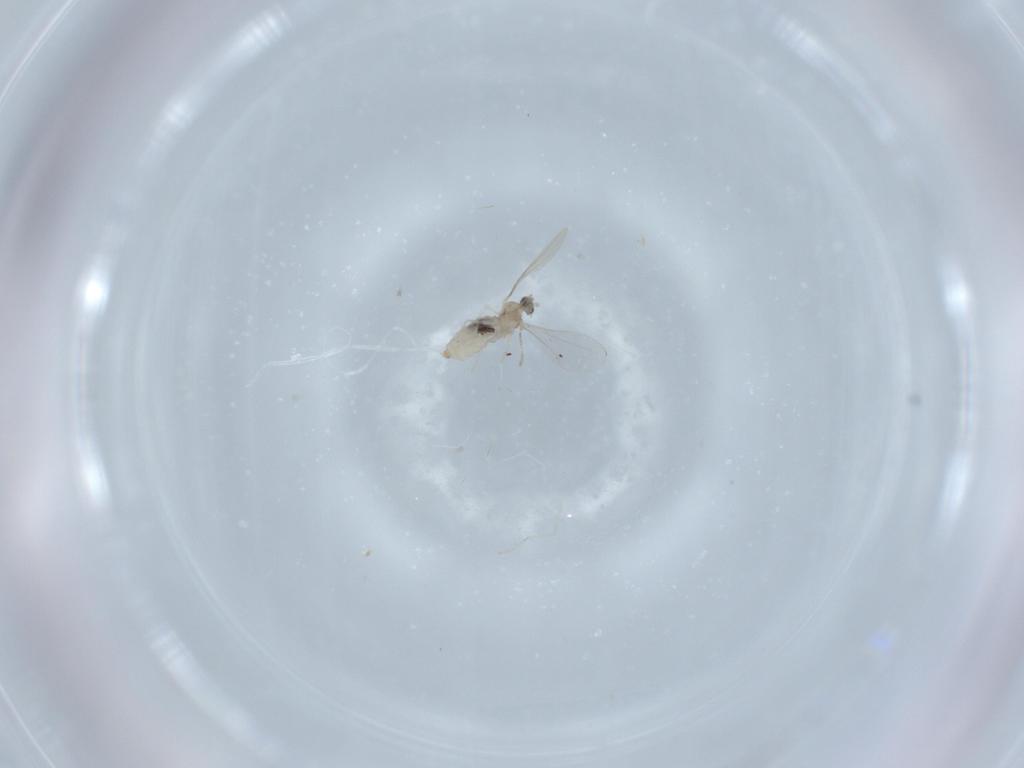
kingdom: Animalia
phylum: Arthropoda
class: Insecta
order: Diptera
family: Cecidomyiidae
